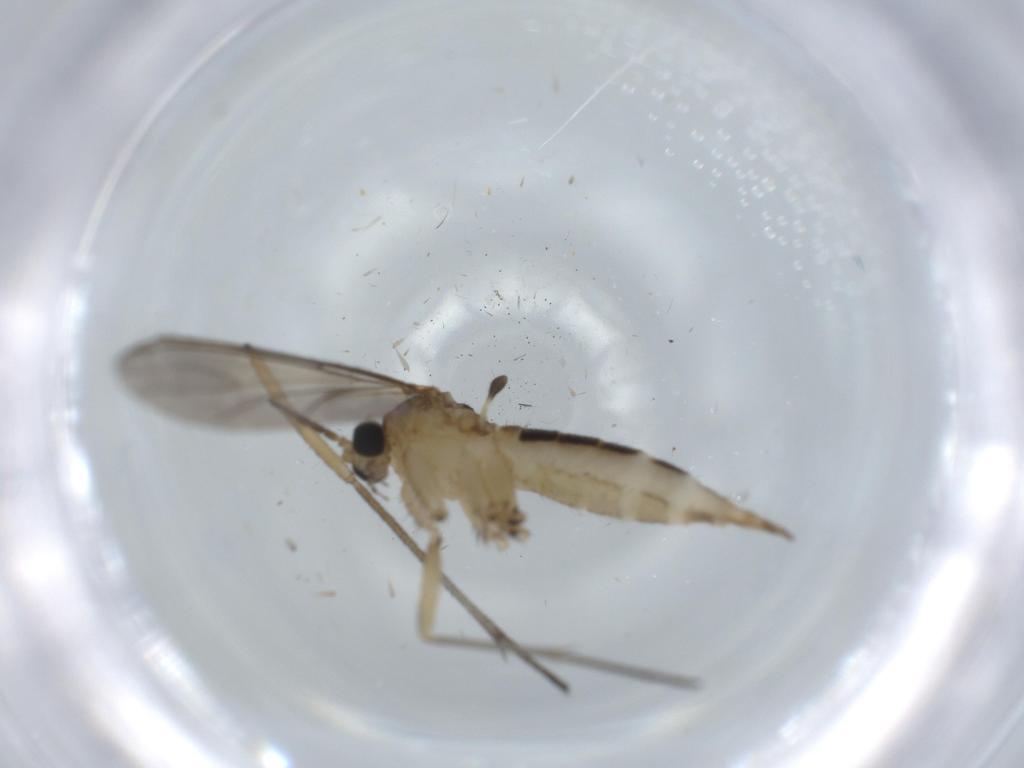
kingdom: Animalia
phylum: Arthropoda
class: Insecta
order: Diptera
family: Sciaridae
